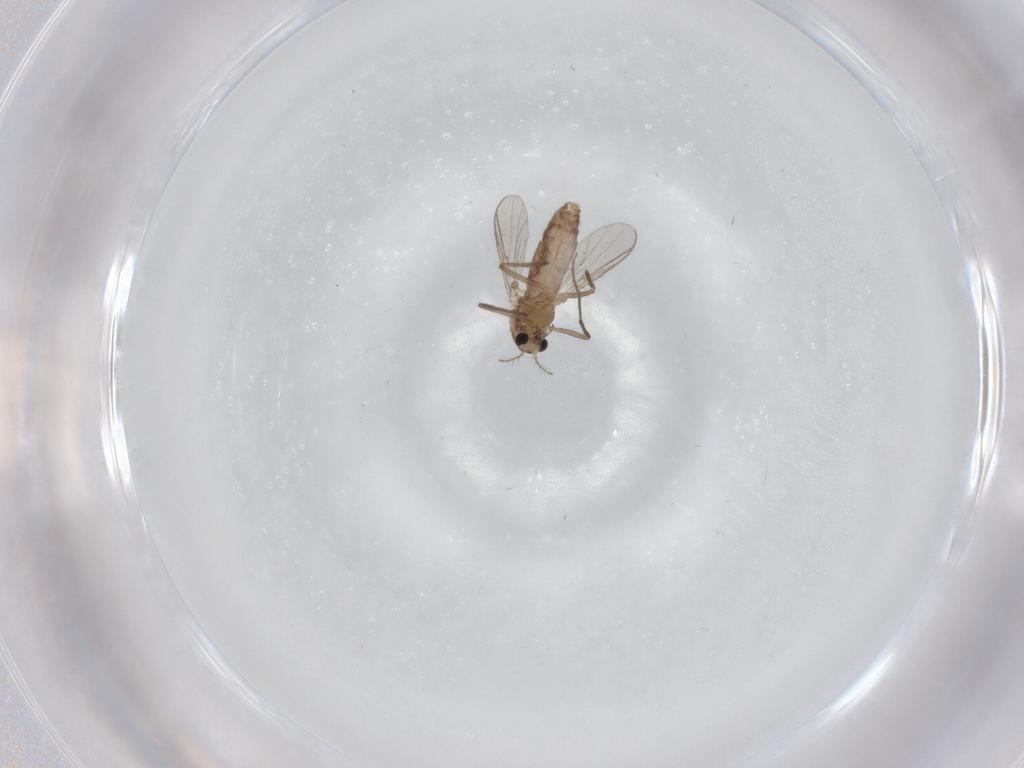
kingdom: Animalia
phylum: Arthropoda
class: Insecta
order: Diptera
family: Chironomidae
